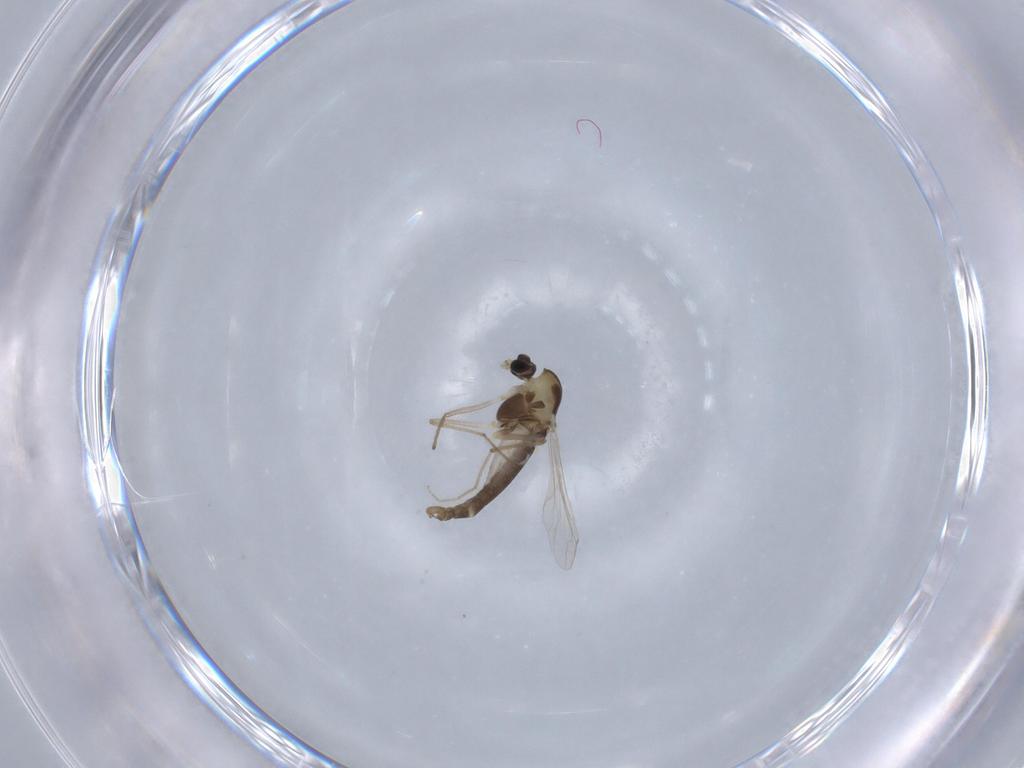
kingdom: Animalia
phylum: Arthropoda
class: Insecta
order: Diptera
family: Chironomidae
